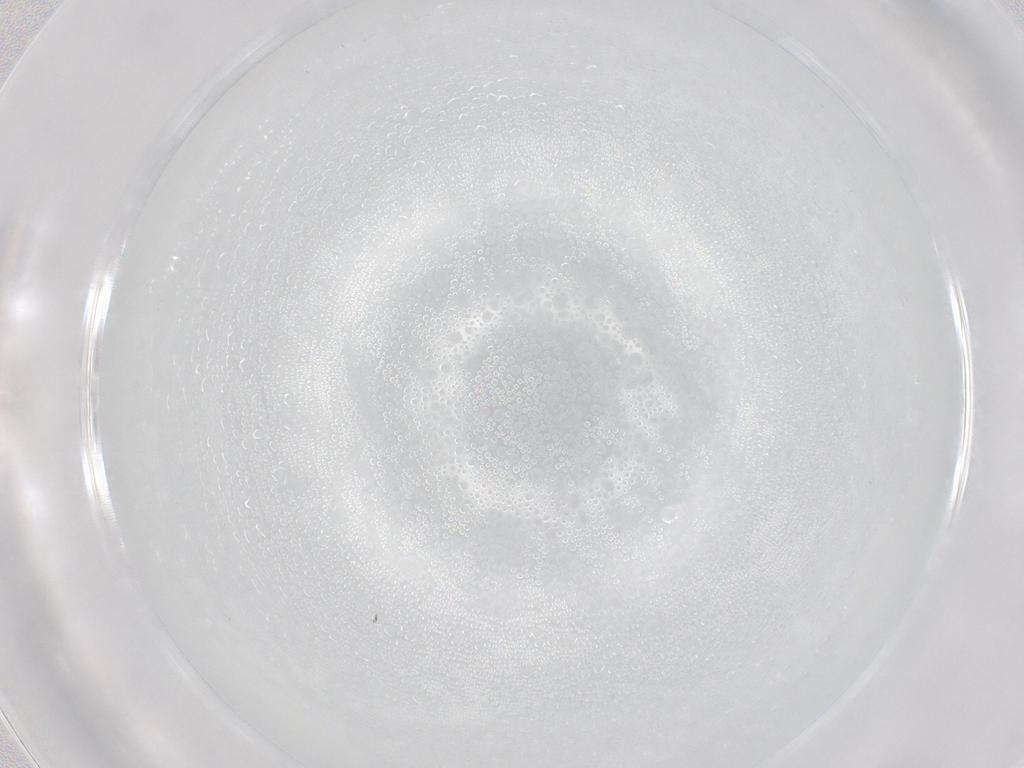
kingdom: Animalia
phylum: Arthropoda
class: Insecta
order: Diptera
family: Cecidomyiidae
